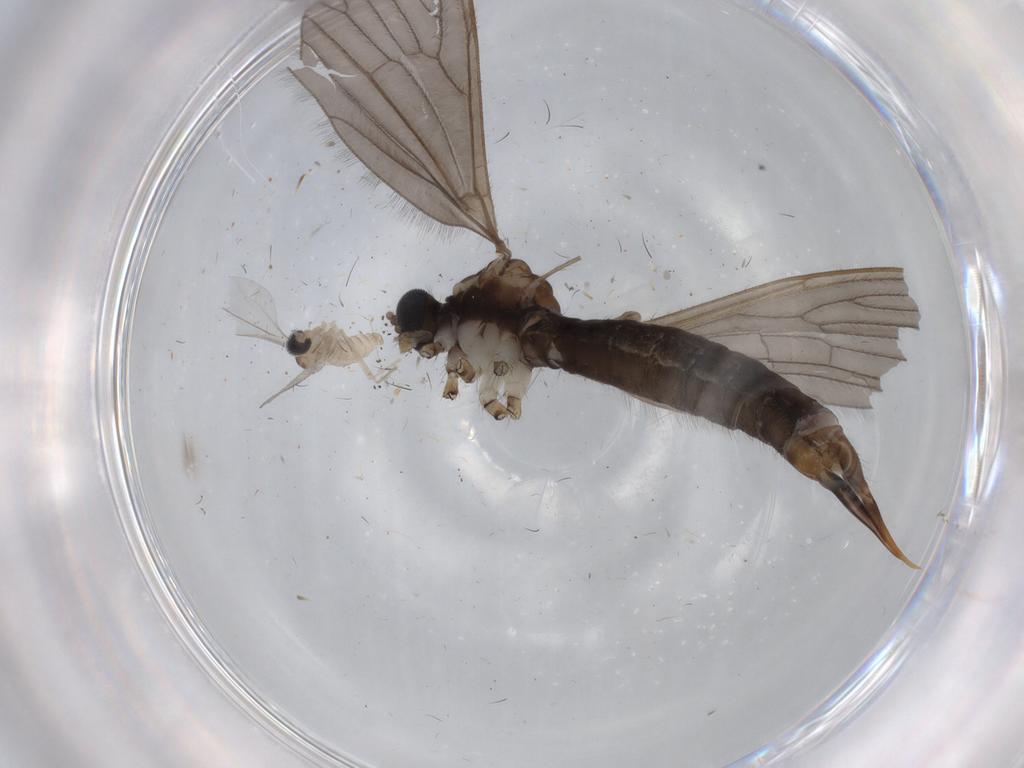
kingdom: Animalia
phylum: Arthropoda
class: Insecta
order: Diptera
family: Limoniidae
